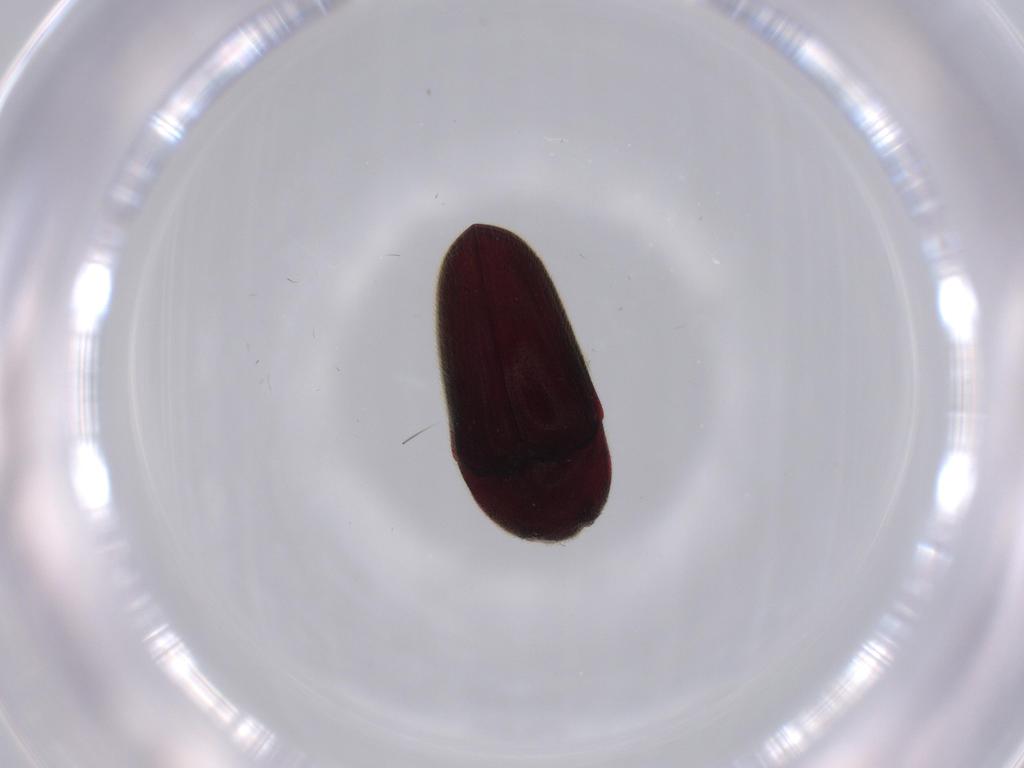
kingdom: Animalia
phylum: Arthropoda
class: Insecta
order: Coleoptera
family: Throscidae
